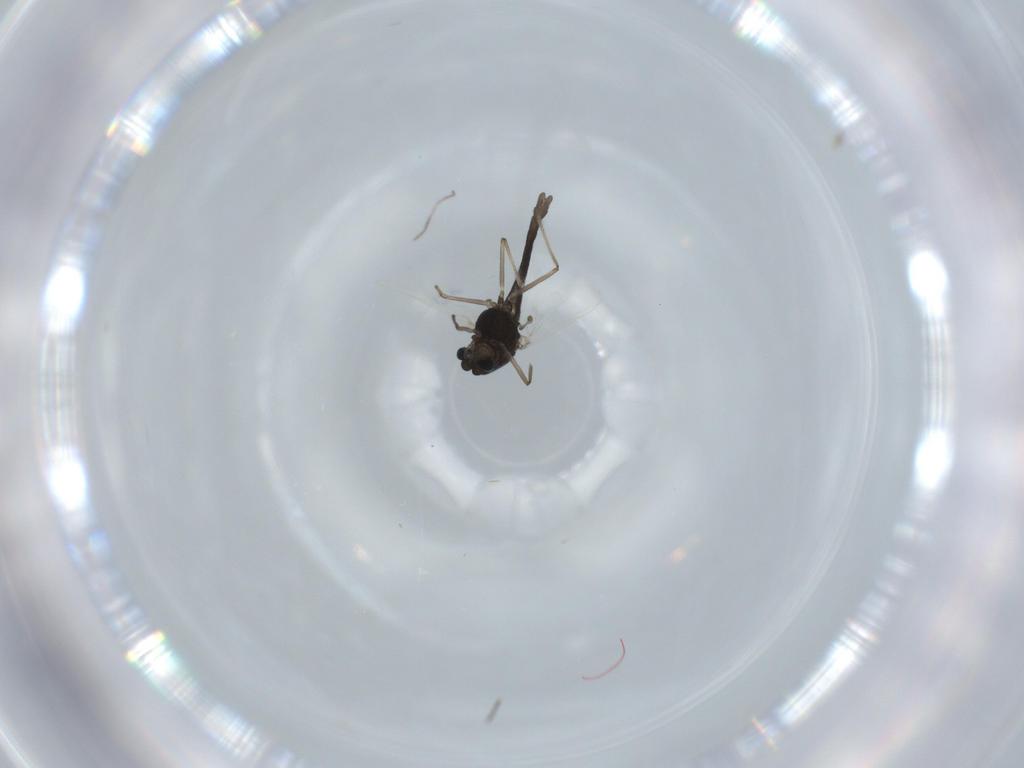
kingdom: Animalia
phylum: Arthropoda
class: Insecta
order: Diptera
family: Chironomidae
